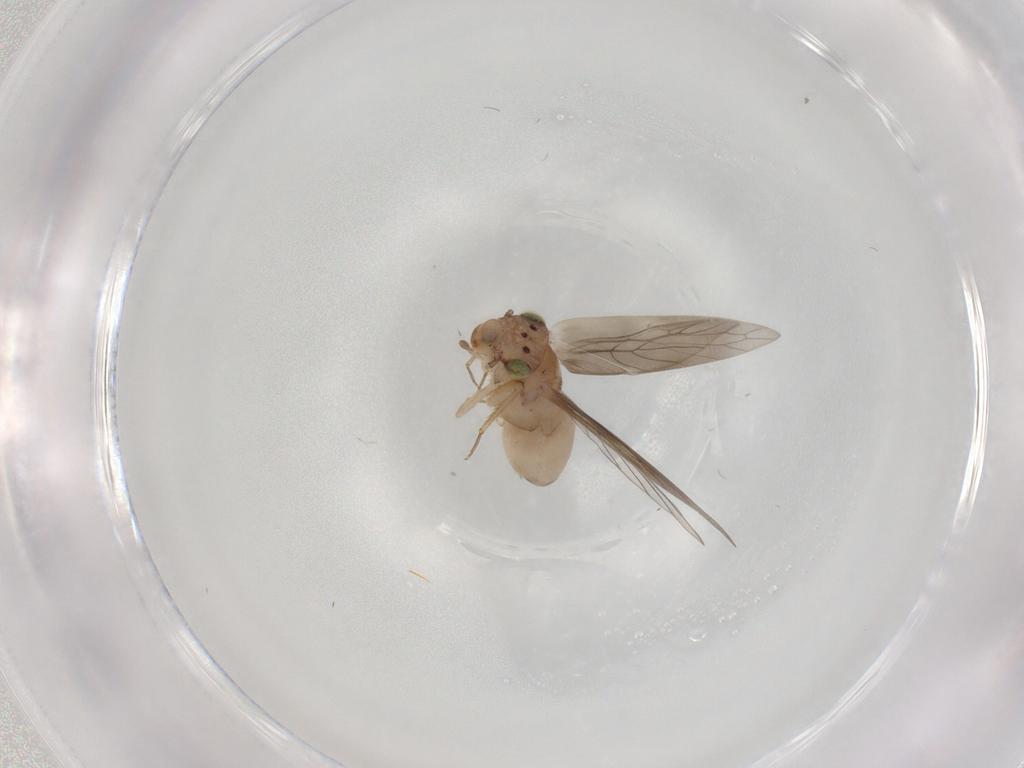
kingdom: Animalia
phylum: Arthropoda
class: Insecta
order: Psocodea
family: Lepidopsocidae
